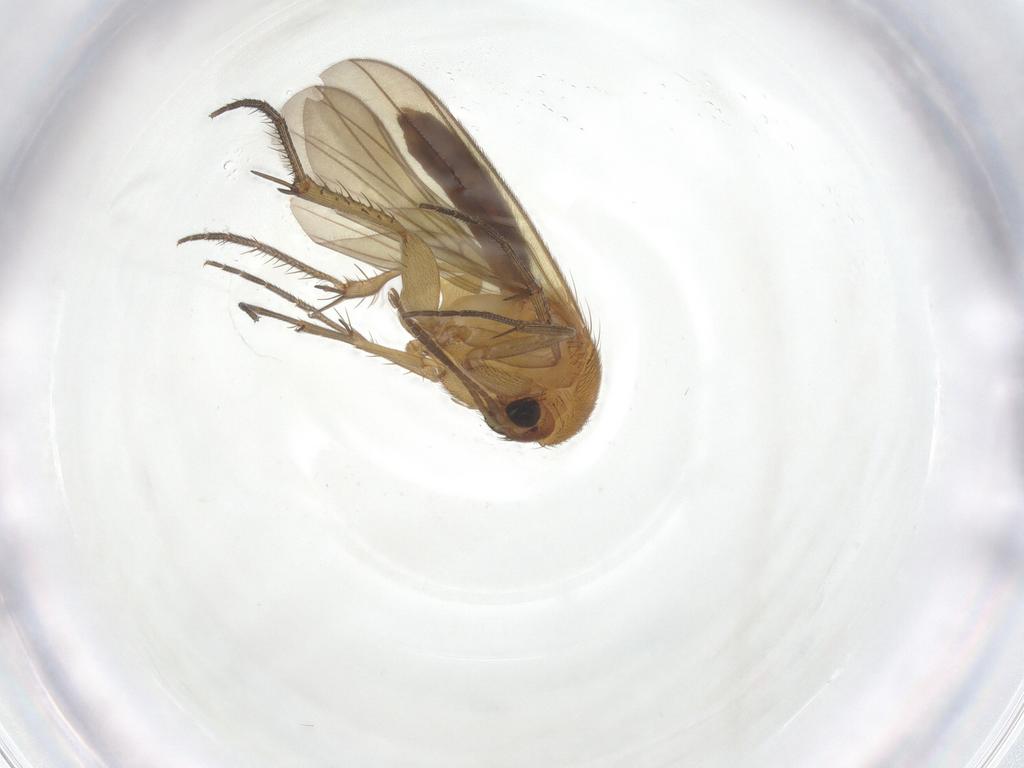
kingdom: Animalia
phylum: Arthropoda
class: Insecta
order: Diptera
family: Mycetophilidae
